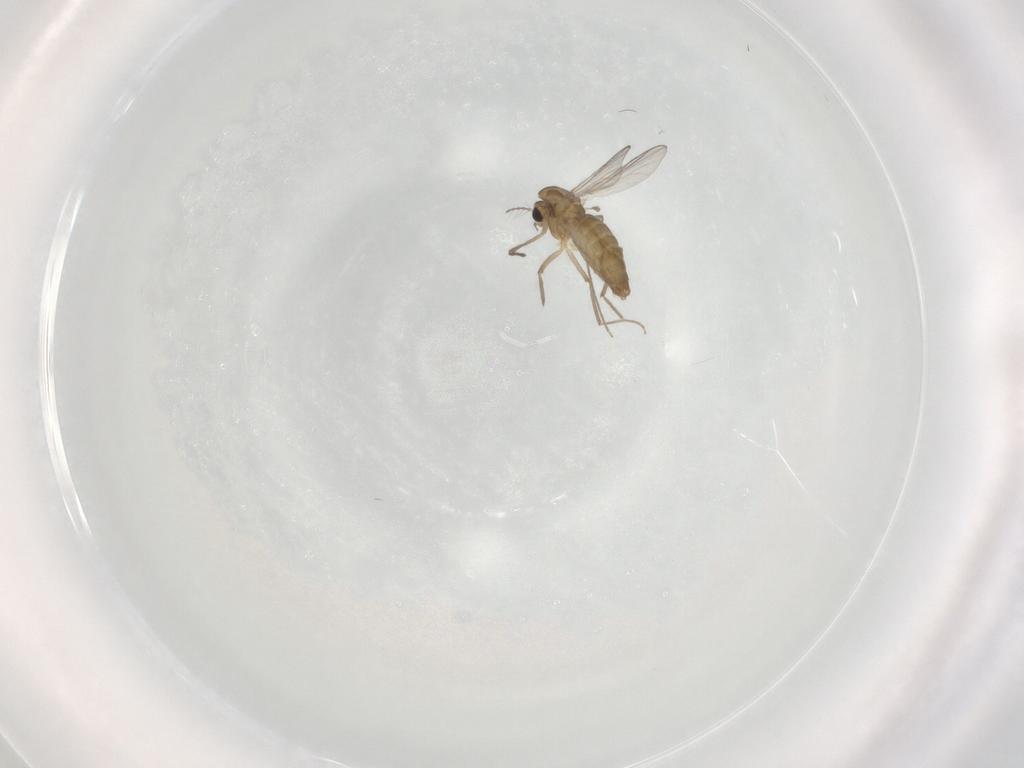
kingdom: Animalia
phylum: Arthropoda
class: Insecta
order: Diptera
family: Chironomidae
